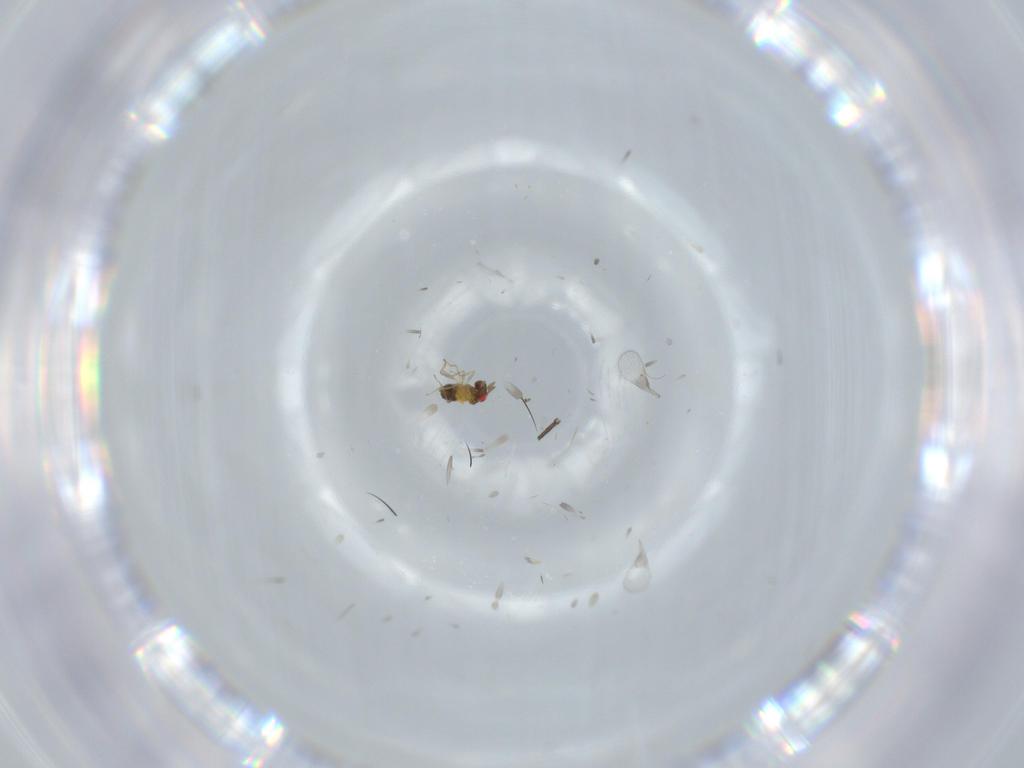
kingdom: Animalia
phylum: Arthropoda
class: Insecta
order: Hymenoptera
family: Trichogrammatidae
